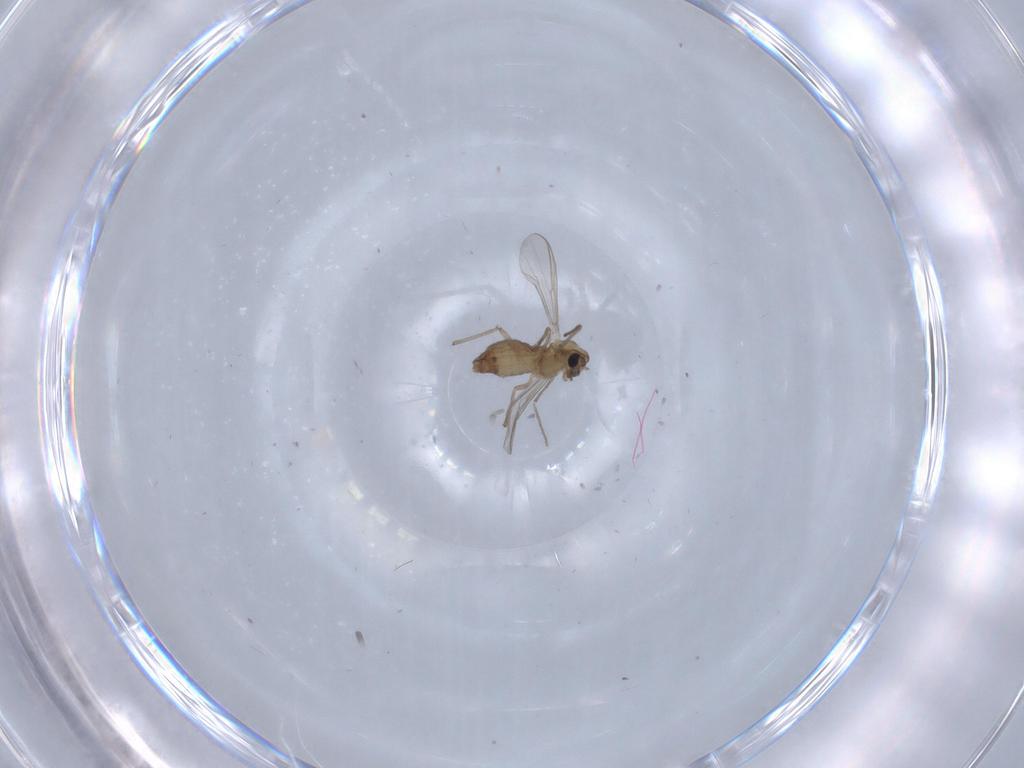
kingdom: Animalia
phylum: Arthropoda
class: Insecta
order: Diptera
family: Chironomidae
